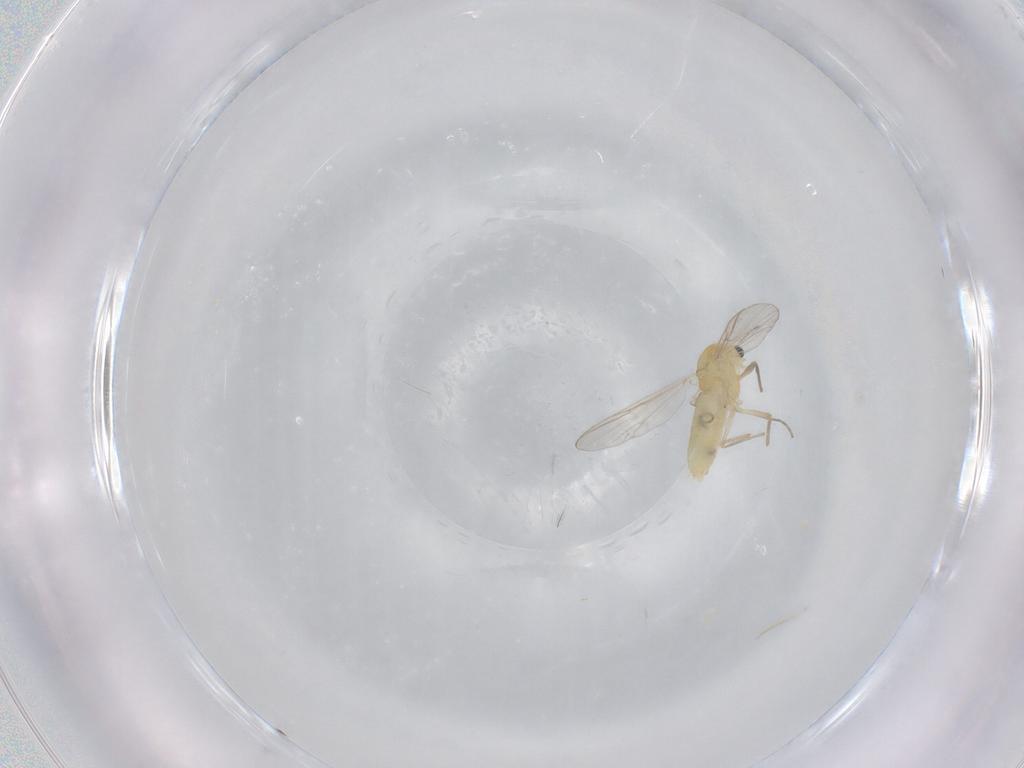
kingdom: Animalia
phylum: Arthropoda
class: Insecta
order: Diptera
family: Chironomidae
